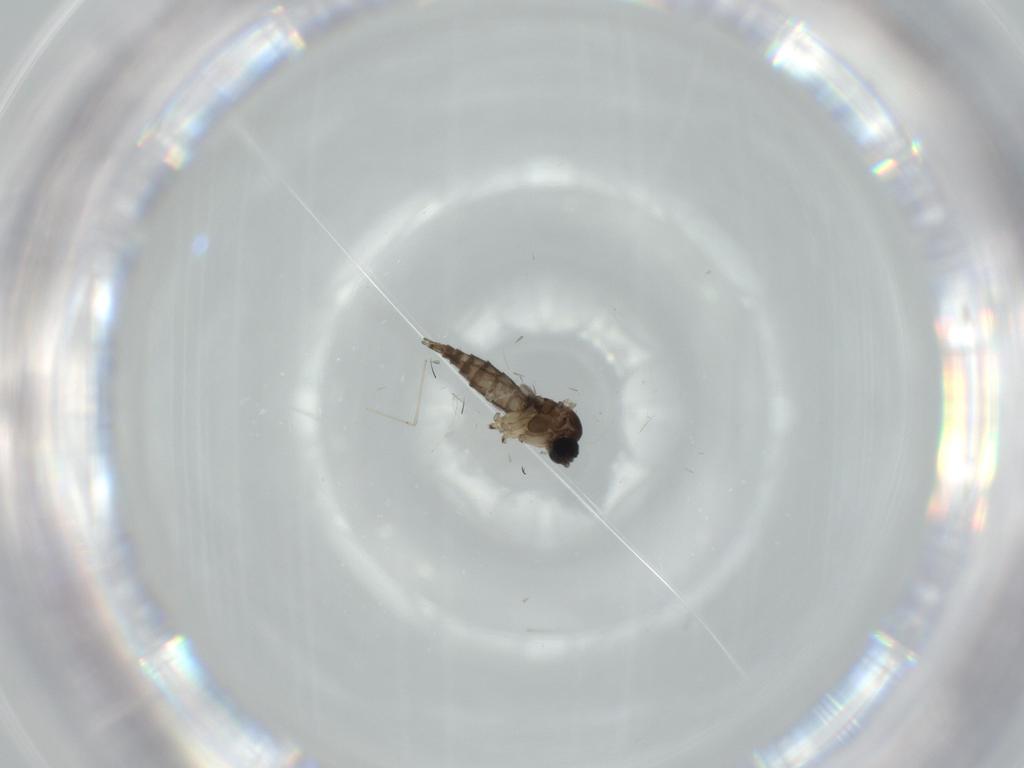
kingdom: Animalia
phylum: Arthropoda
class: Insecta
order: Diptera
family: Sciaridae
